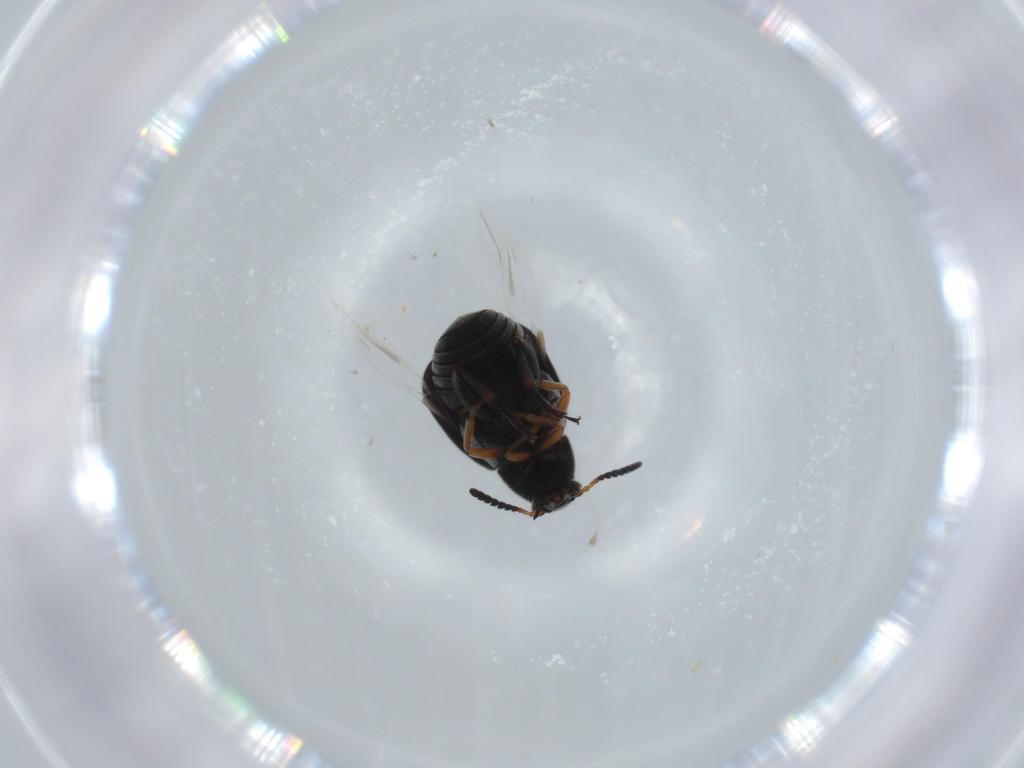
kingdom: Animalia
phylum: Arthropoda
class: Insecta
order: Coleoptera
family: Chrysomelidae
